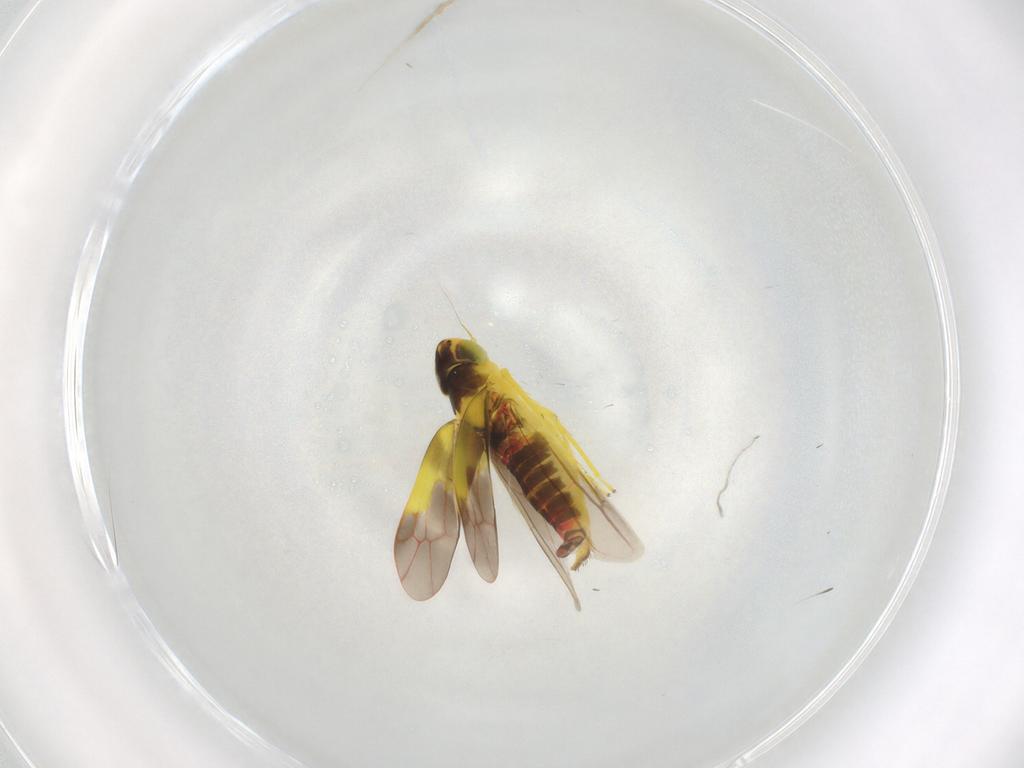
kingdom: Animalia
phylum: Arthropoda
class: Insecta
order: Hemiptera
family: Cicadellidae
